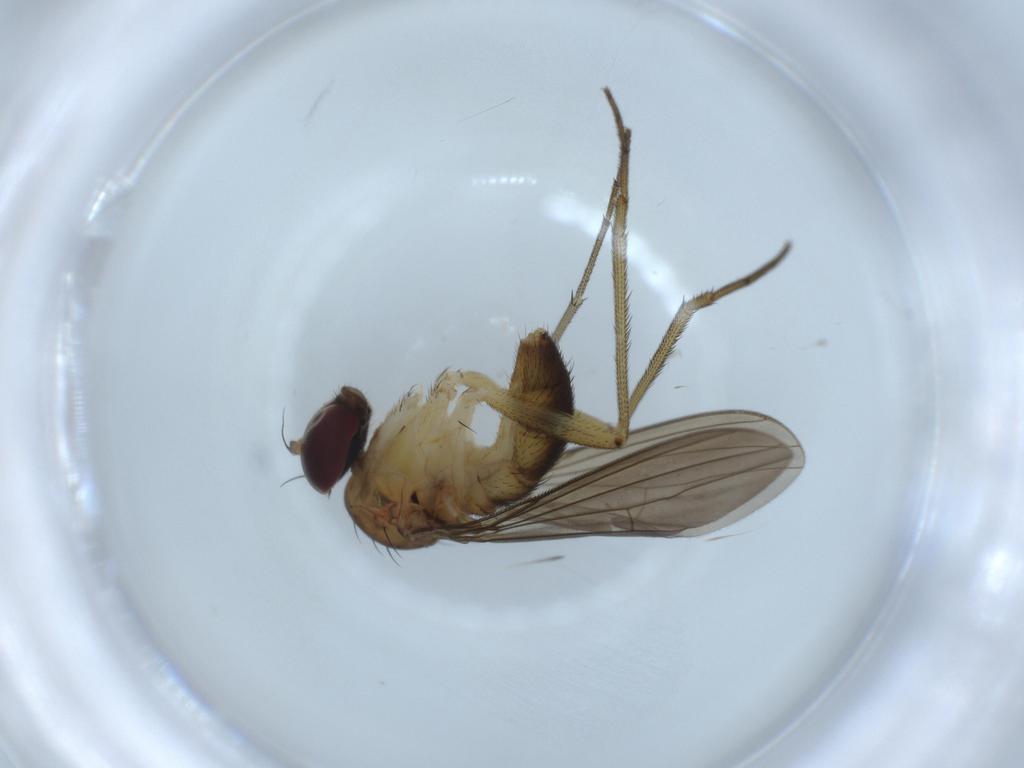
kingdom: Animalia
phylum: Arthropoda
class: Insecta
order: Diptera
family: Dolichopodidae
